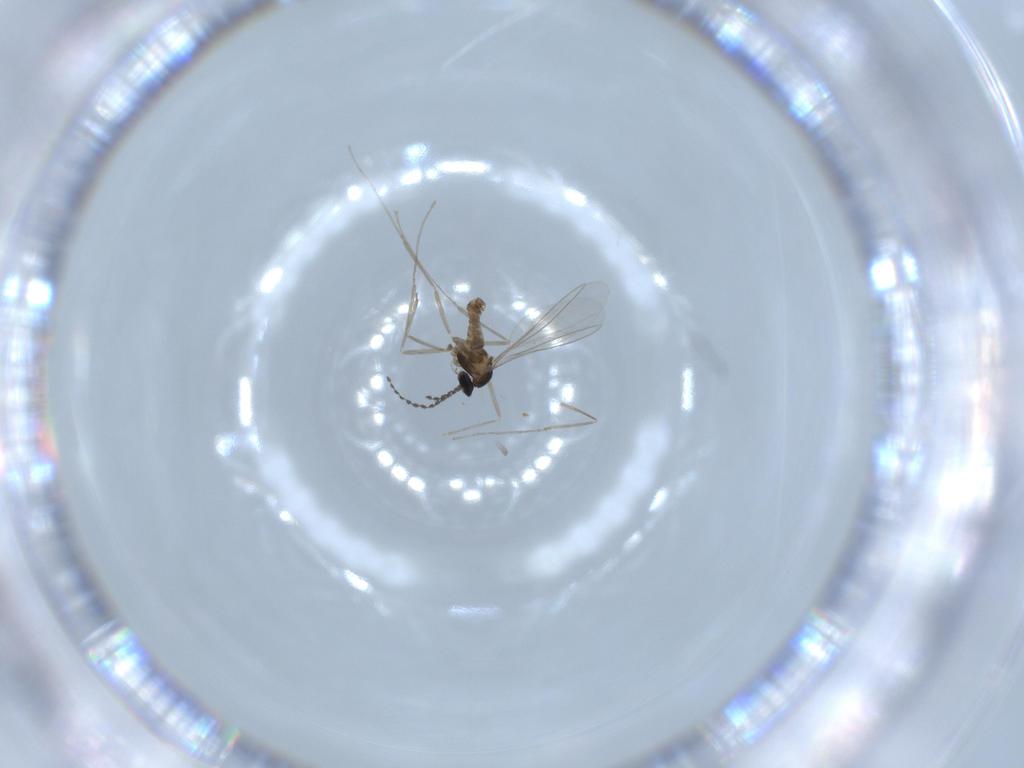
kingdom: Animalia
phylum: Arthropoda
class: Insecta
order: Diptera
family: Cecidomyiidae
